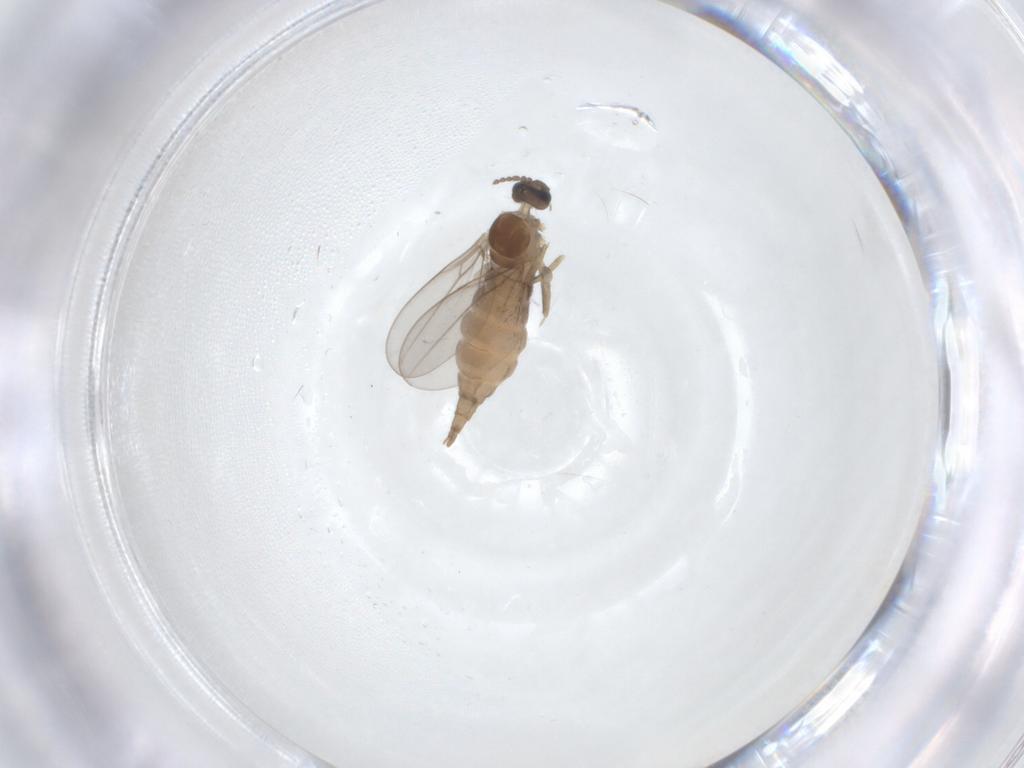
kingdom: Animalia
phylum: Arthropoda
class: Insecta
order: Diptera
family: Cecidomyiidae
